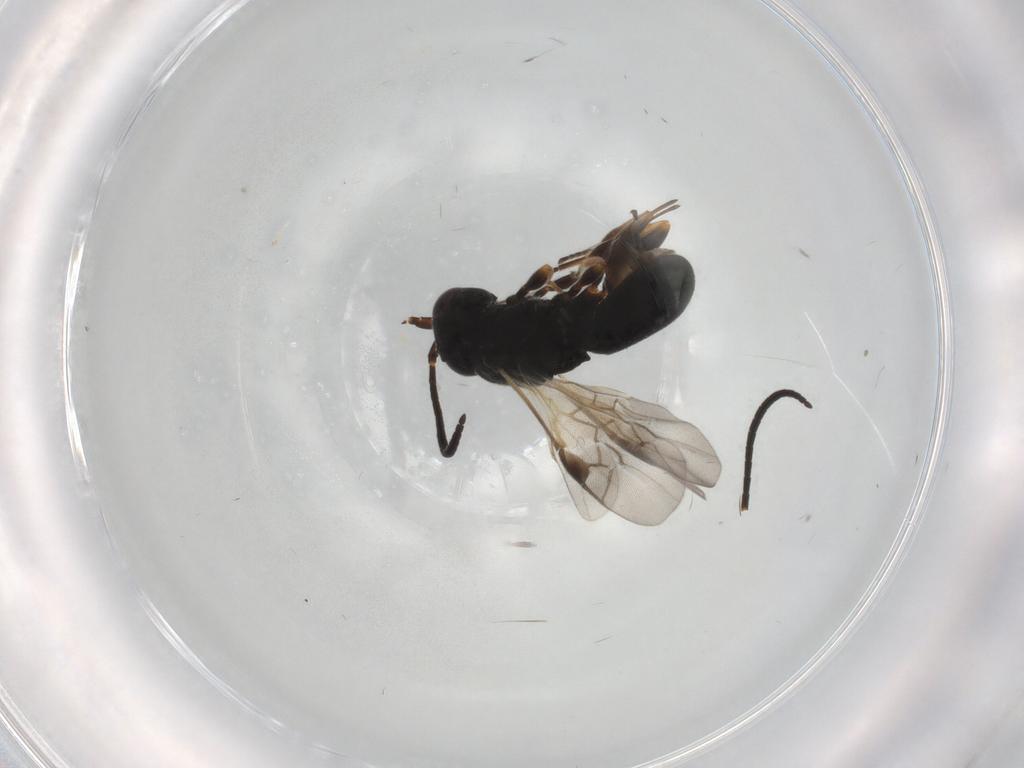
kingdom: Animalia
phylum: Arthropoda
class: Insecta
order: Hymenoptera
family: Braconidae
